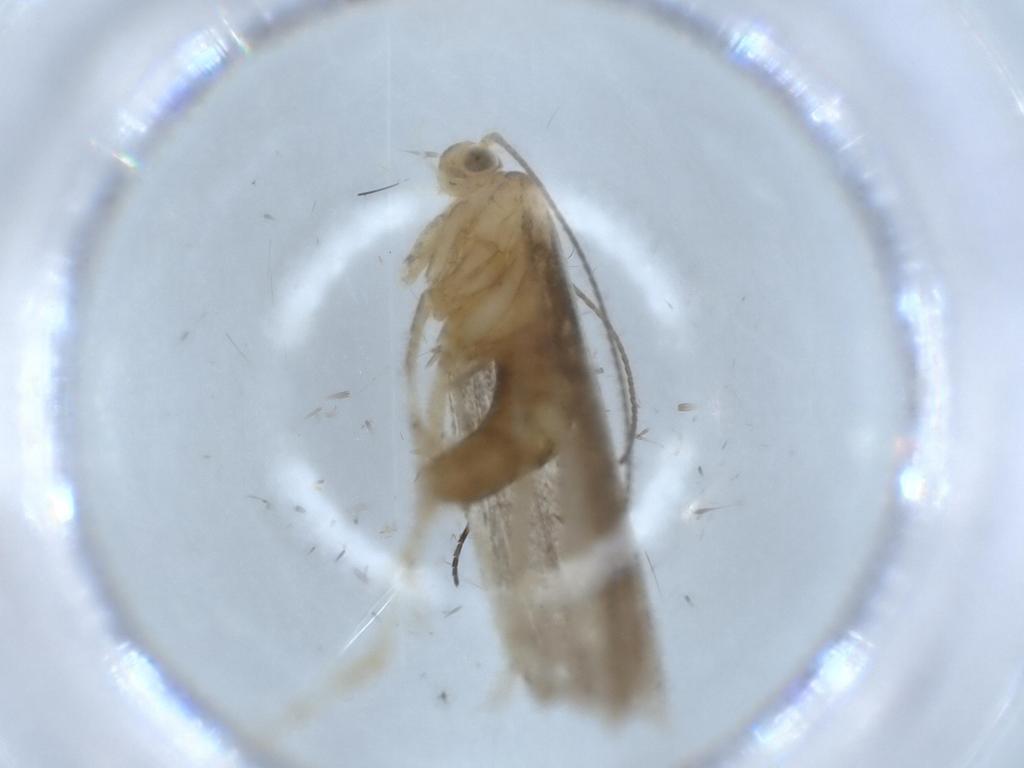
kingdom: Animalia
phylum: Arthropoda
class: Insecta
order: Lepidoptera
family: Argyresthiidae
